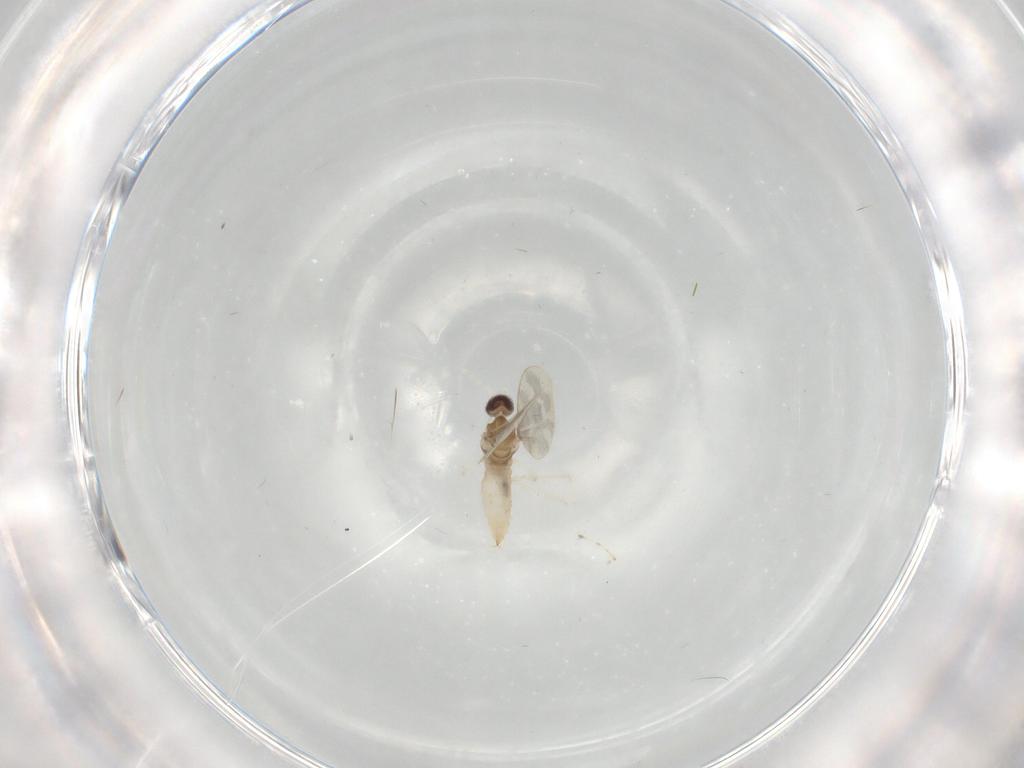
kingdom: Animalia
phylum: Arthropoda
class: Insecta
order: Diptera
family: Cecidomyiidae
